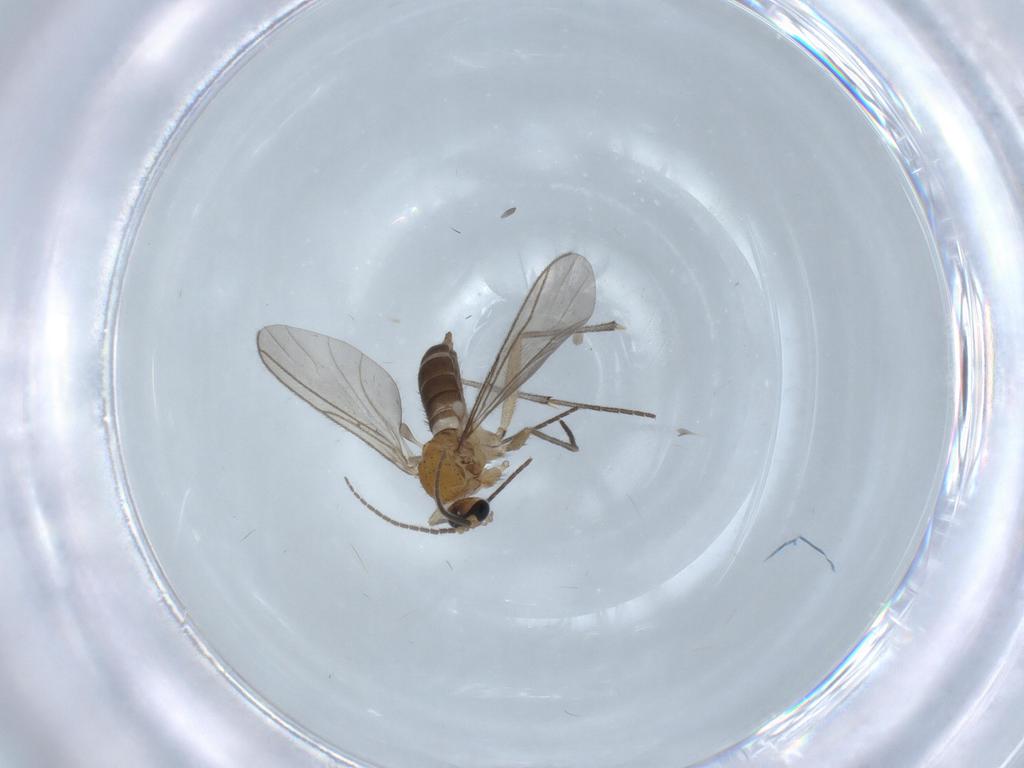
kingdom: Animalia
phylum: Arthropoda
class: Insecta
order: Diptera
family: Sciaridae
